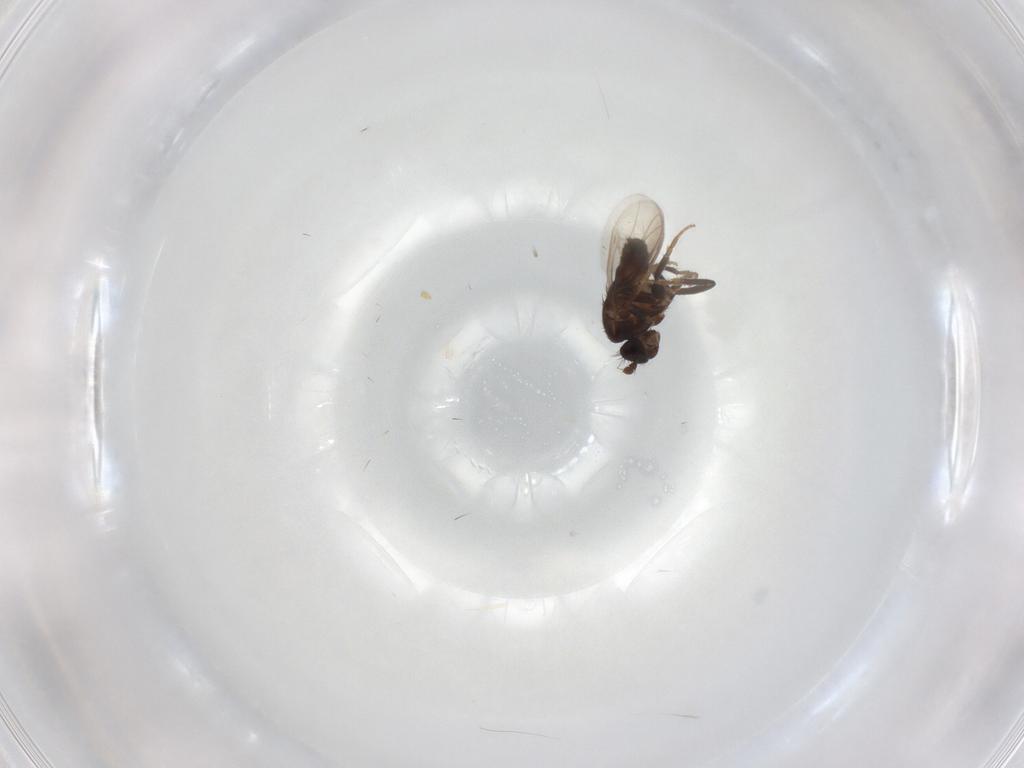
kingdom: Animalia
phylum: Arthropoda
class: Insecta
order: Diptera
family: Sphaeroceridae
